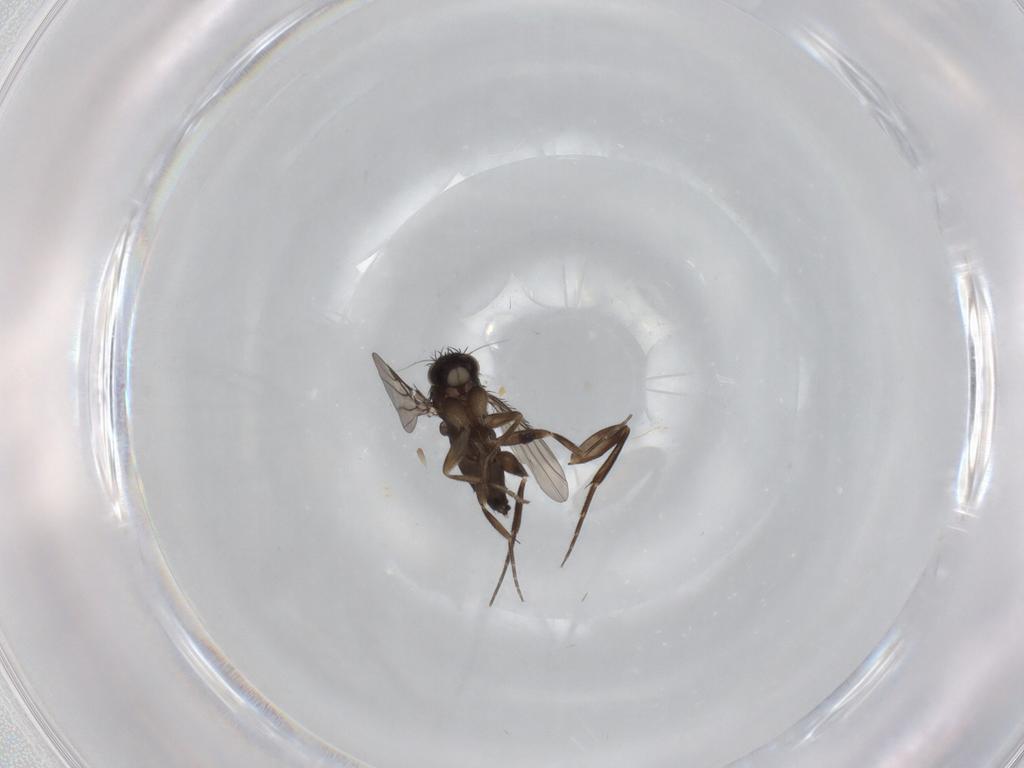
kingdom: Animalia
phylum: Arthropoda
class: Insecta
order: Diptera
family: Phoridae
